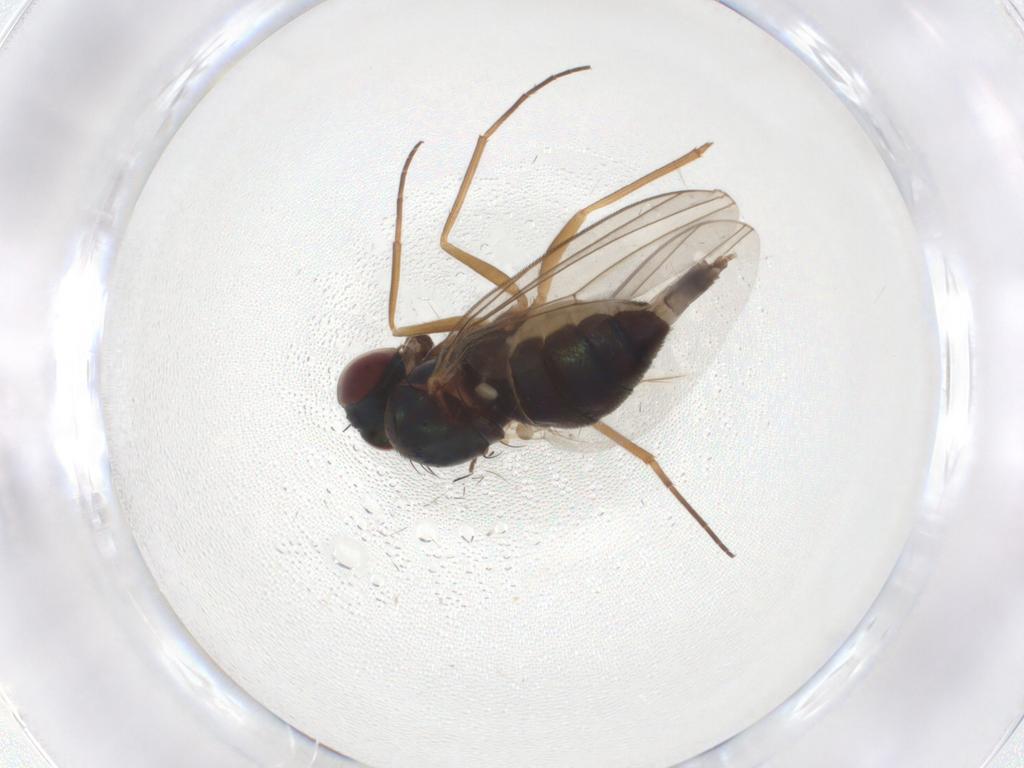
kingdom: Animalia
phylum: Arthropoda
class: Insecta
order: Diptera
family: Dolichopodidae
